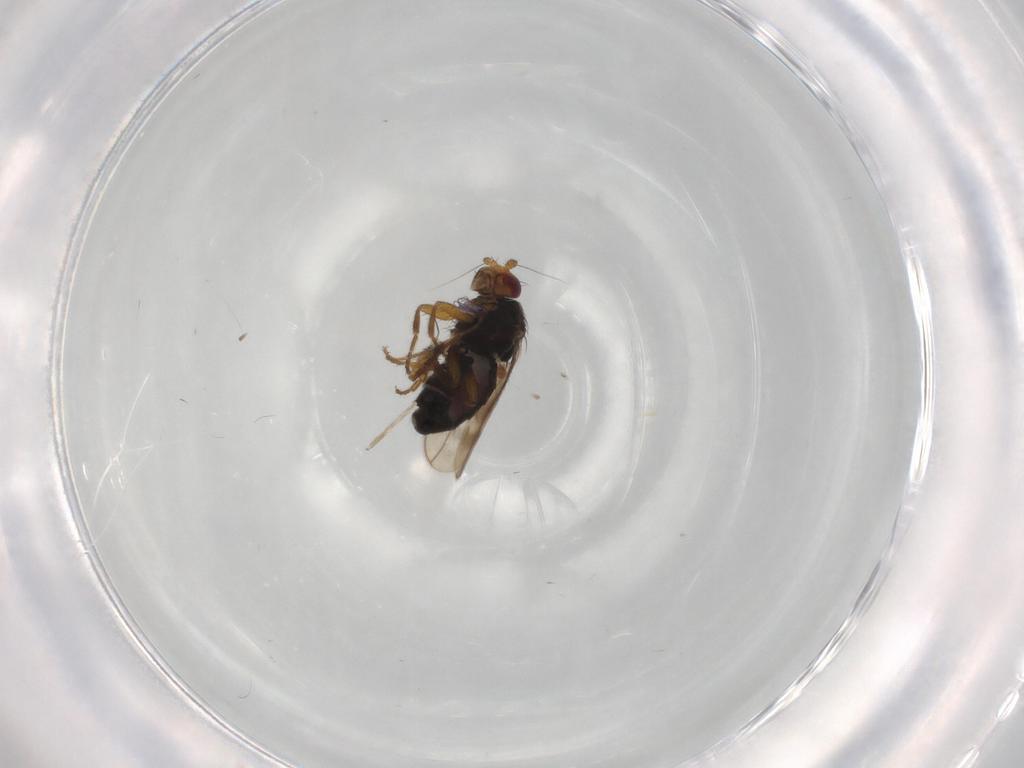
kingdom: Animalia
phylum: Arthropoda
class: Insecta
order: Diptera
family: Sphaeroceridae
